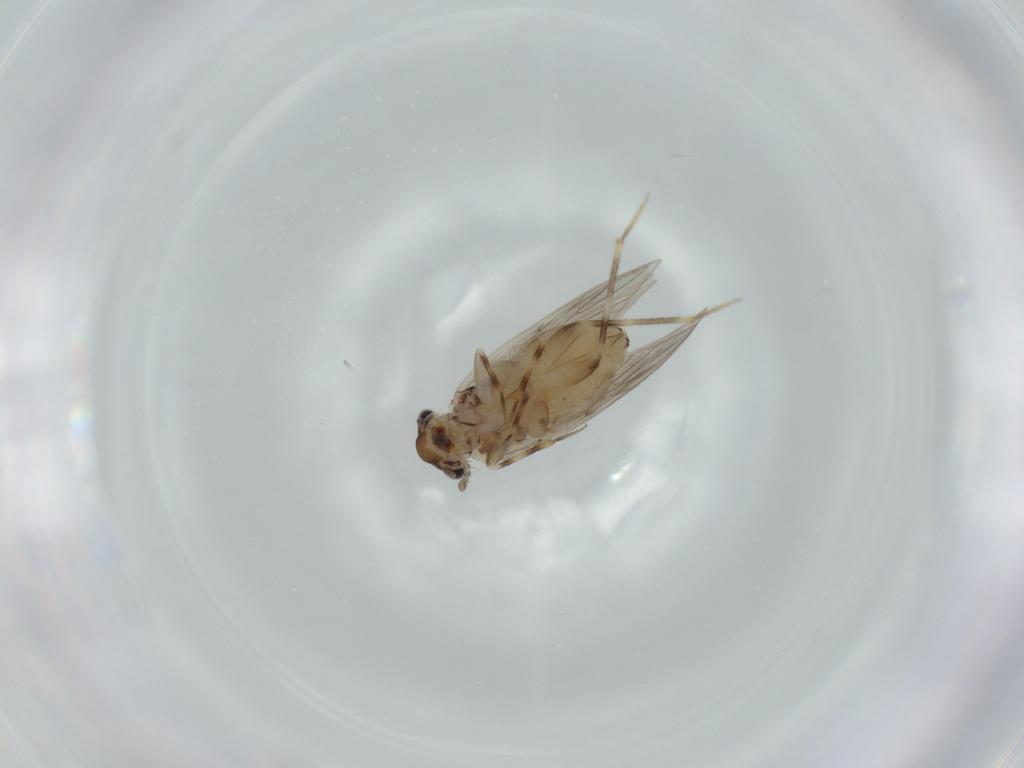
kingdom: Animalia
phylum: Arthropoda
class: Insecta
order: Psocodea
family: Lepidopsocidae
